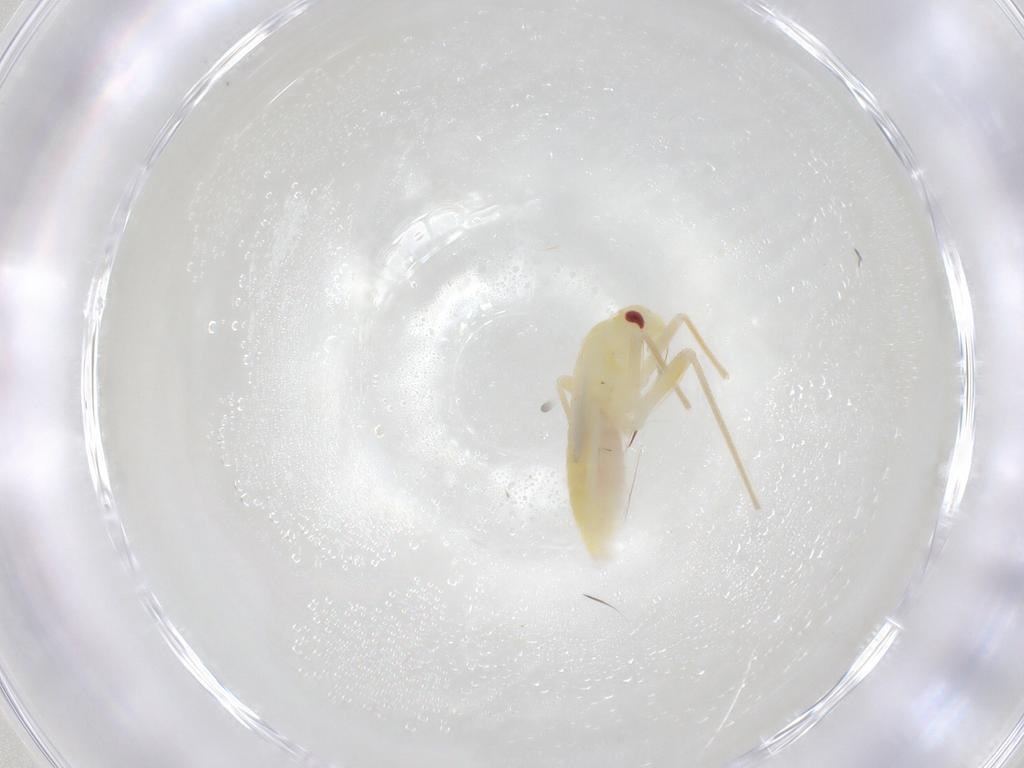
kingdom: Animalia
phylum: Arthropoda
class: Insecta
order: Hemiptera
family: Miridae
